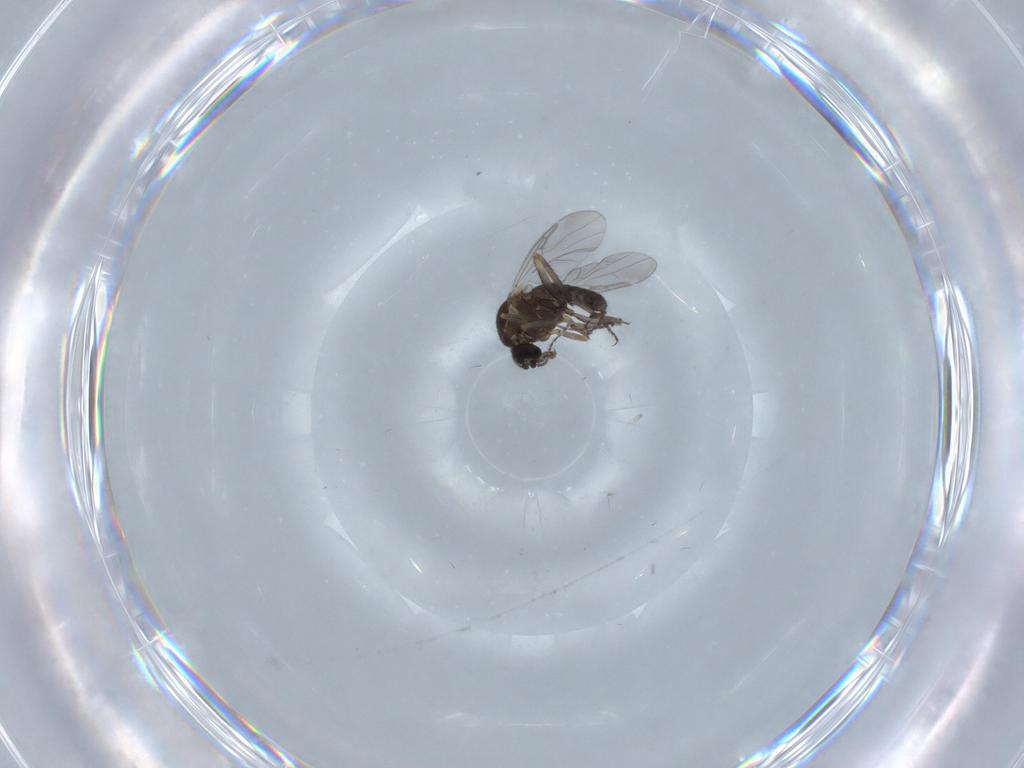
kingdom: Animalia
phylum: Arthropoda
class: Insecta
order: Diptera
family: Ceratopogonidae
